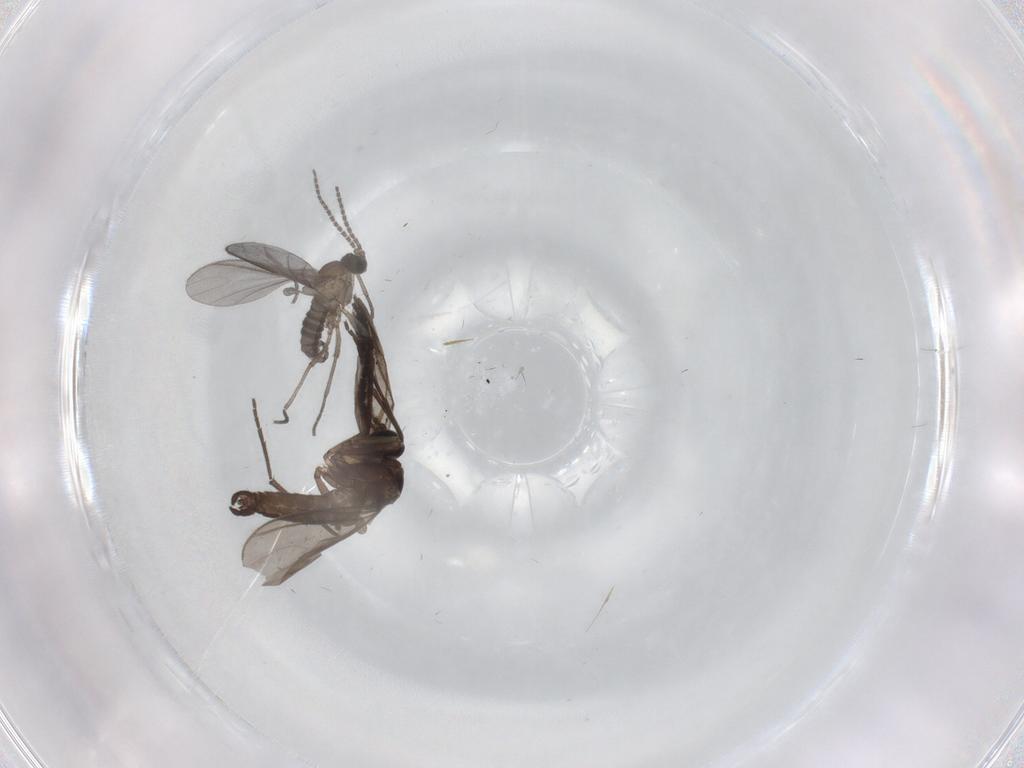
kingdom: Animalia
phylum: Arthropoda
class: Insecta
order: Diptera
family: Sciaridae
